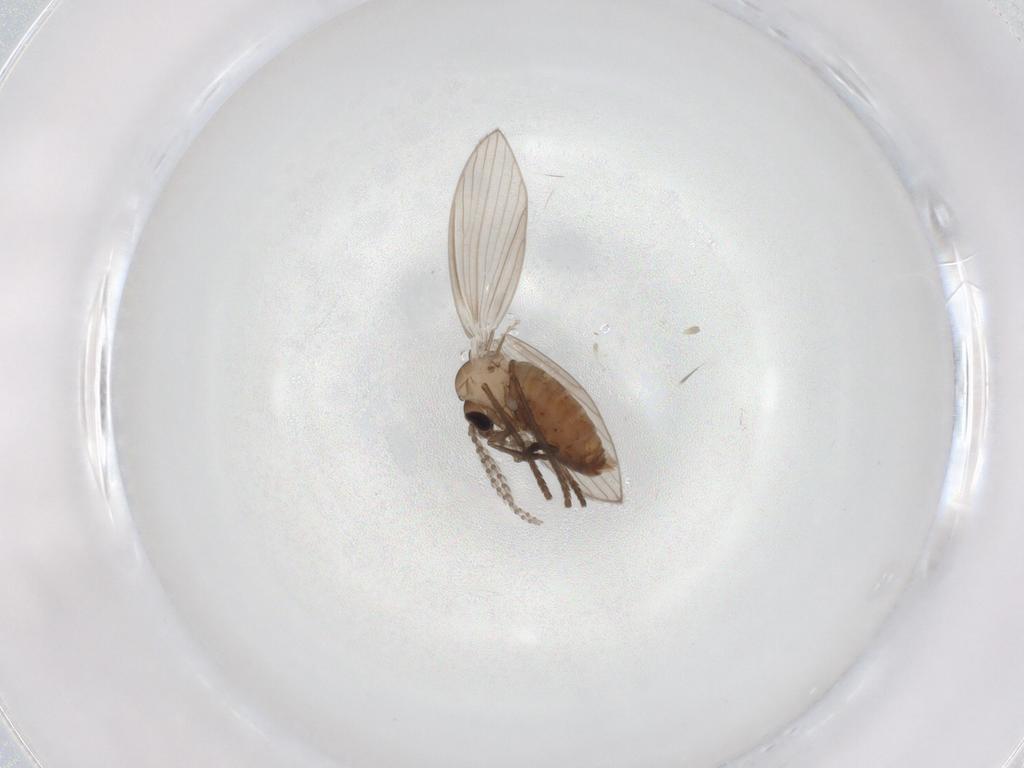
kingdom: Animalia
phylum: Arthropoda
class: Insecta
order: Diptera
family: Psychodidae
